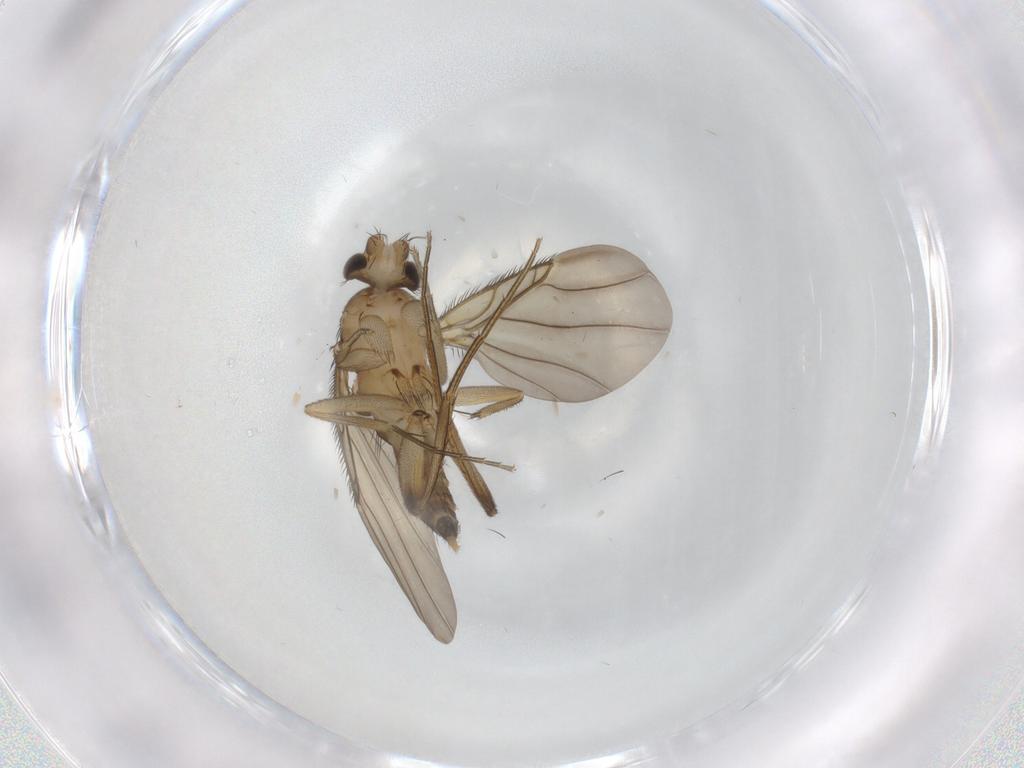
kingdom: Animalia
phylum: Arthropoda
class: Insecta
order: Diptera
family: Phoridae
